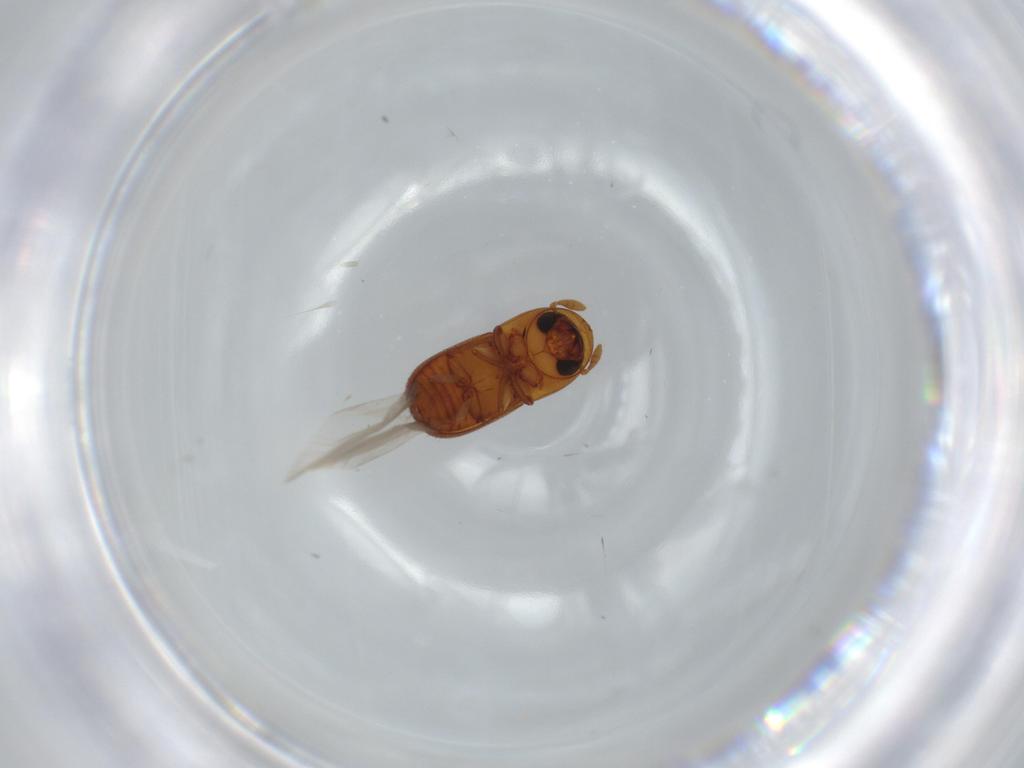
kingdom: Animalia
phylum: Arthropoda
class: Insecta
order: Coleoptera
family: Curculionidae
